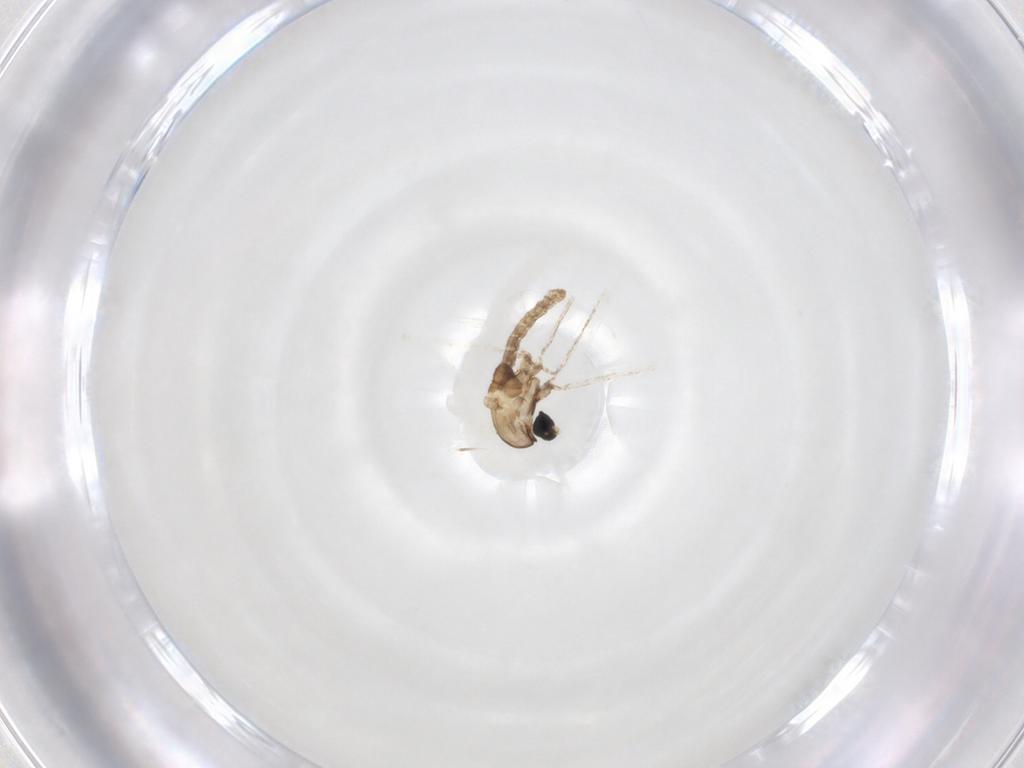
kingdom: Animalia
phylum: Arthropoda
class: Insecta
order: Diptera
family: Cecidomyiidae
